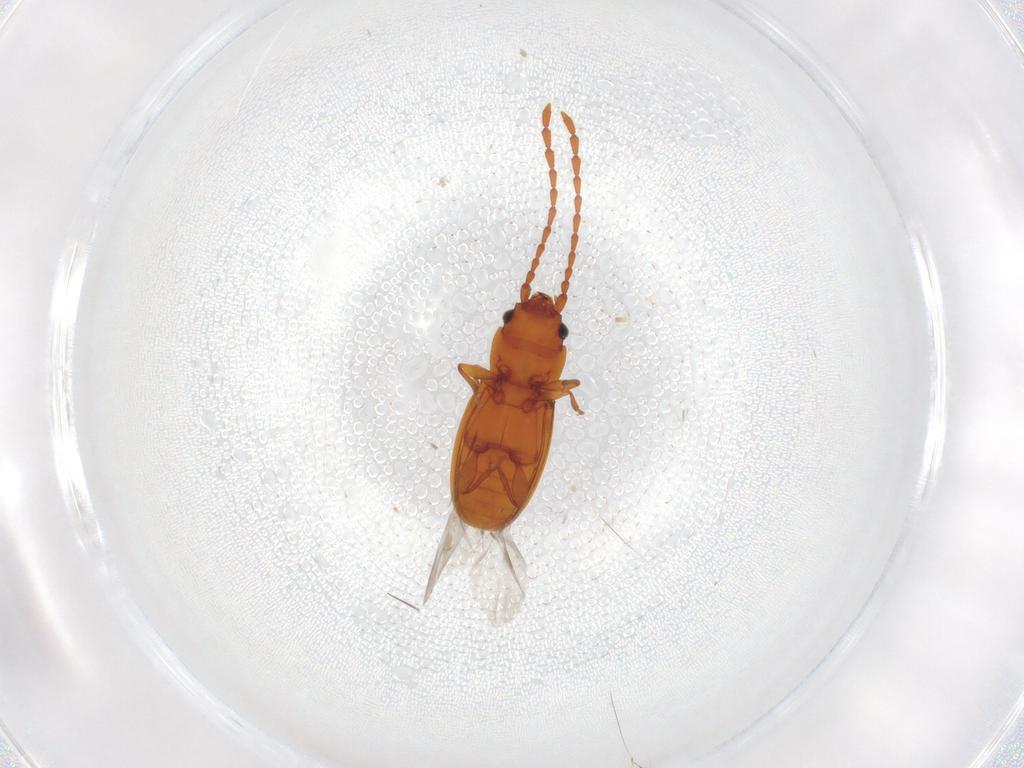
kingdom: Animalia
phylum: Arthropoda
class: Insecta
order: Coleoptera
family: Laemophloeidae
